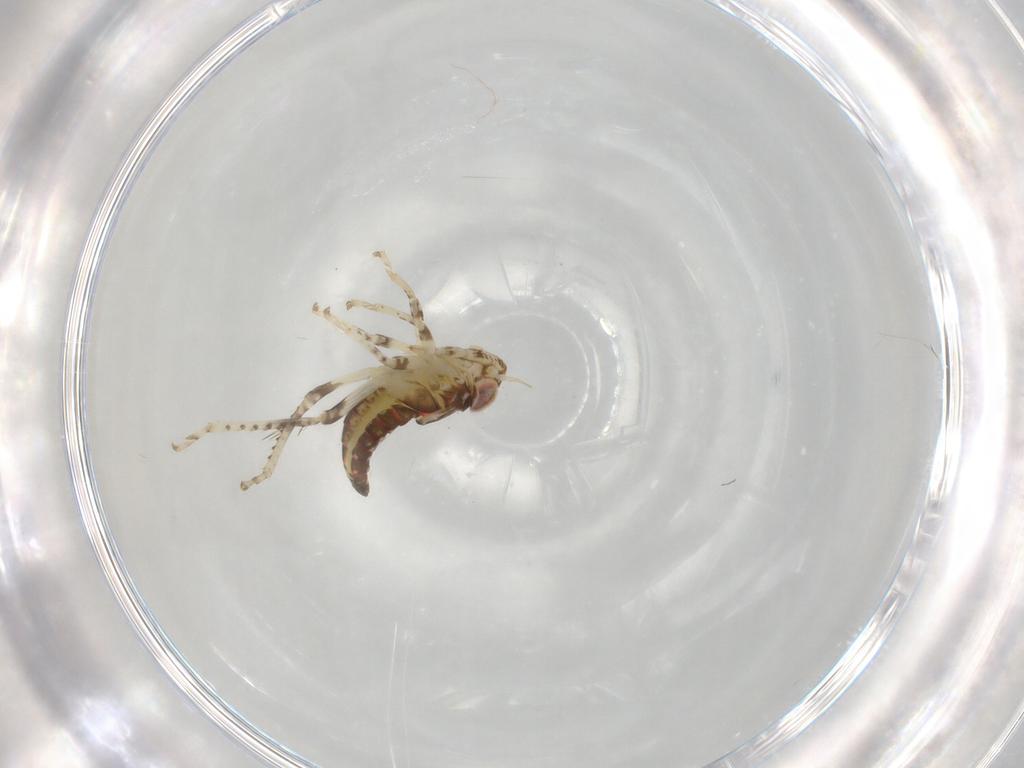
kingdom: Animalia
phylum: Arthropoda
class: Insecta
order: Hemiptera
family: Cicadellidae
